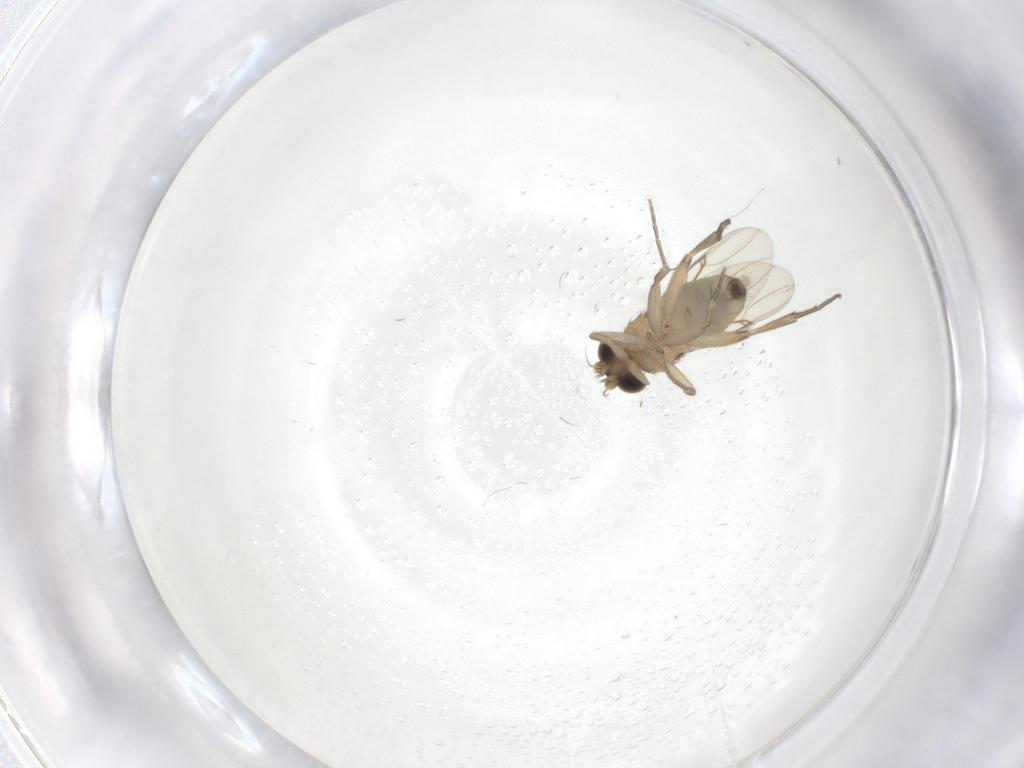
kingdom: Animalia
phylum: Arthropoda
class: Insecta
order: Diptera
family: Phoridae
